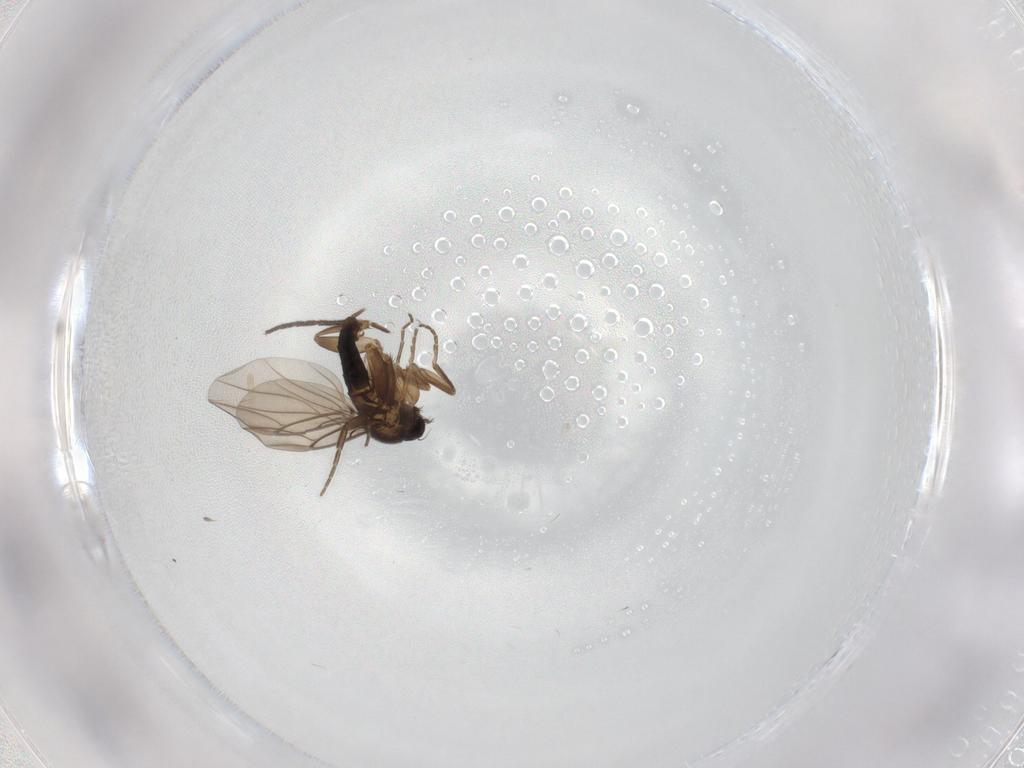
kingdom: Animalia
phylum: Arthropoda
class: Insecta
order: Diptera
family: Phoridae
